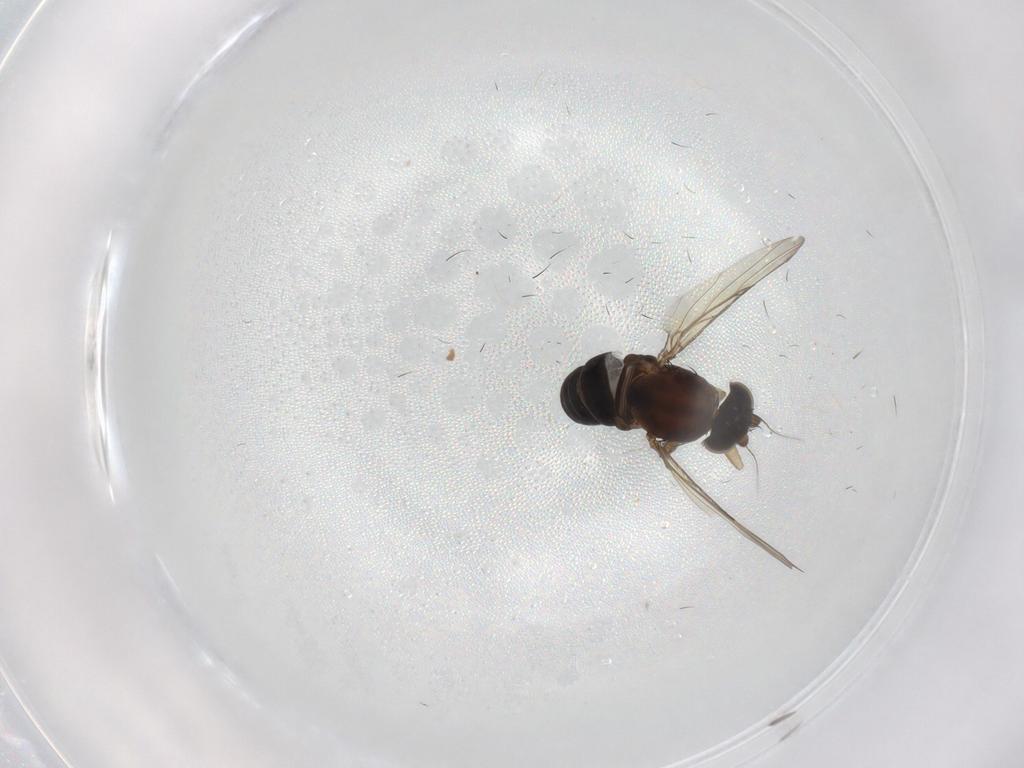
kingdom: Animalia
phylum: Arthropoda
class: Insecta
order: Diptera
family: Phoridae
